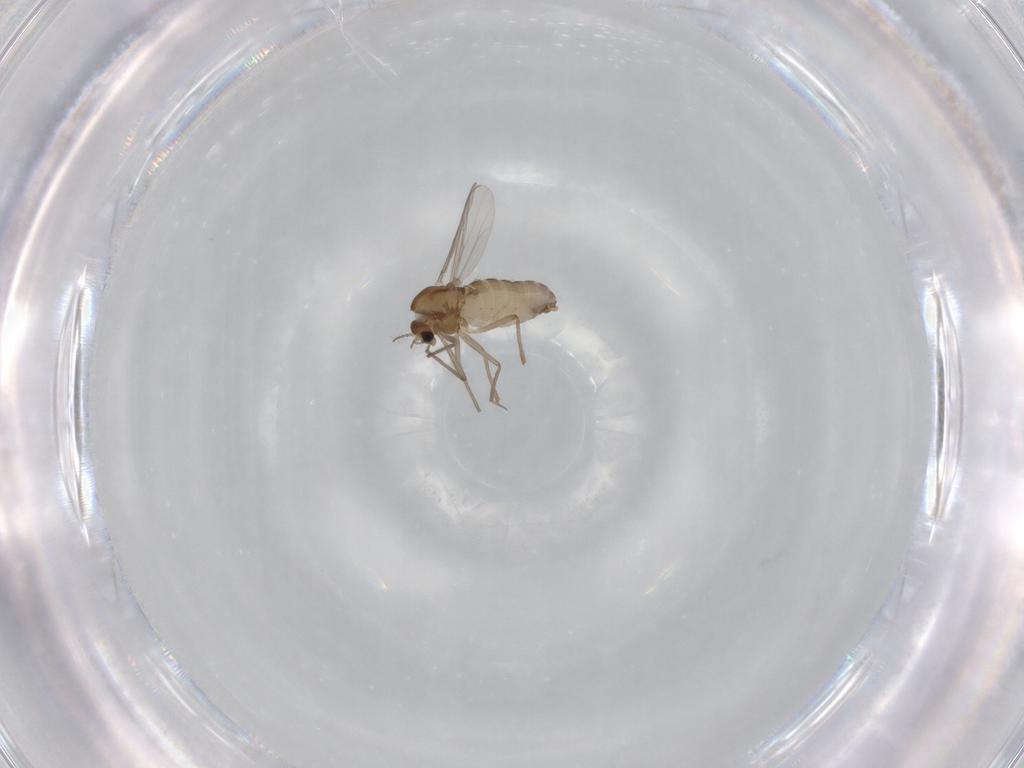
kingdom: Animalia
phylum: Arthropoda
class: Insecta
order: Diptera
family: Chironomidae
